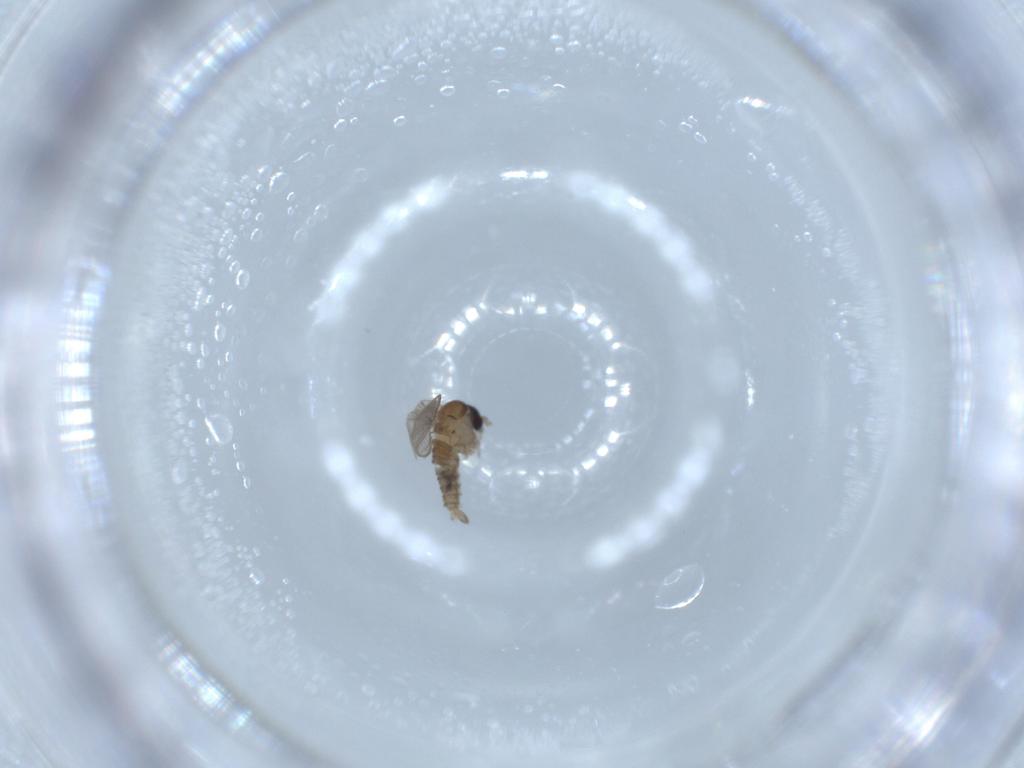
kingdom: Animalia
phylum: Arthropoda
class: Insecta
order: Diptera
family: Psychodidae
